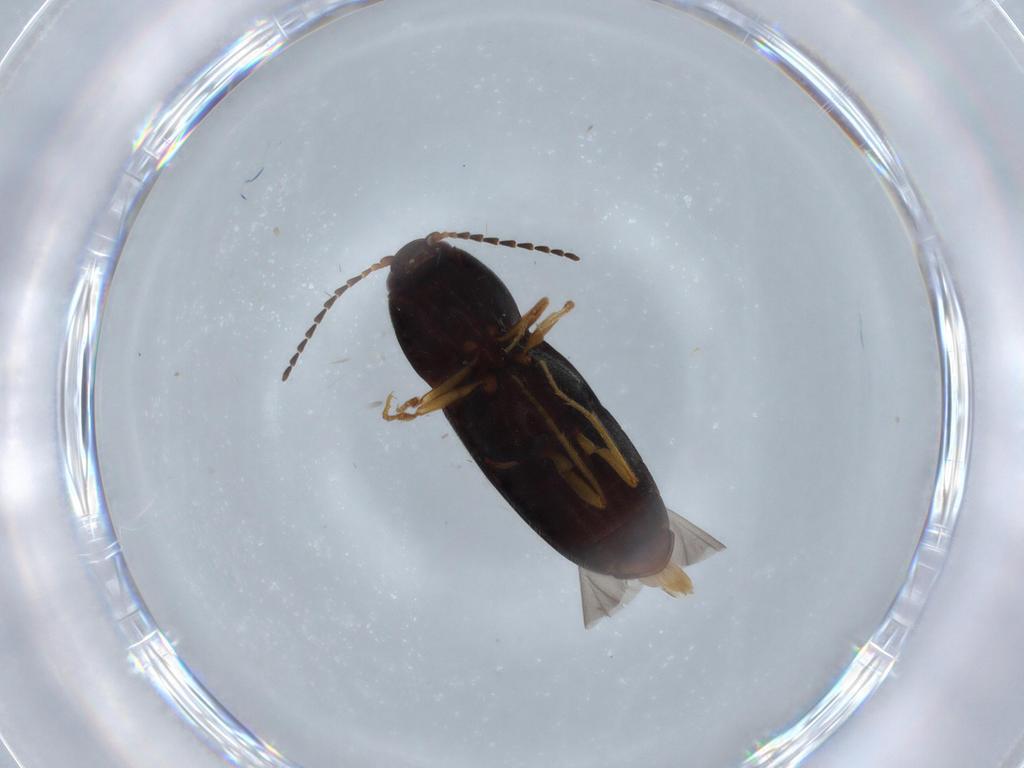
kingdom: Animalia
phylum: Arthropoda
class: Insecta
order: Coleoptera
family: Elateridae
